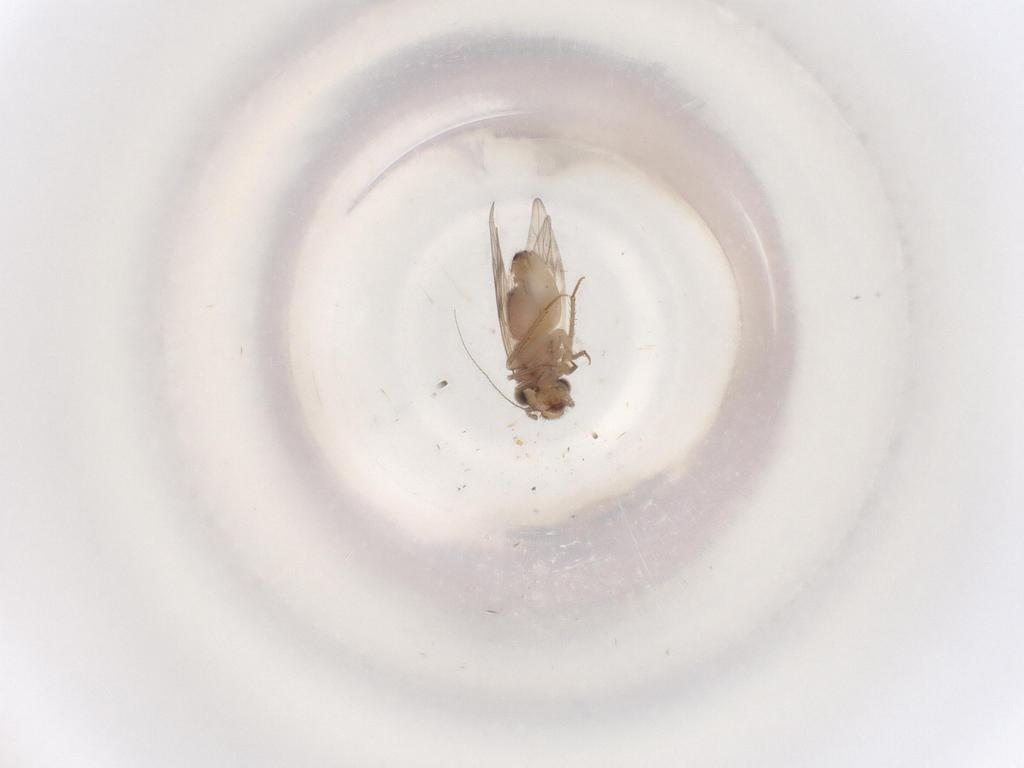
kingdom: Animalia
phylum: Arthropoda
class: Insecta
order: Psocodea
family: Lepidopsocidae
